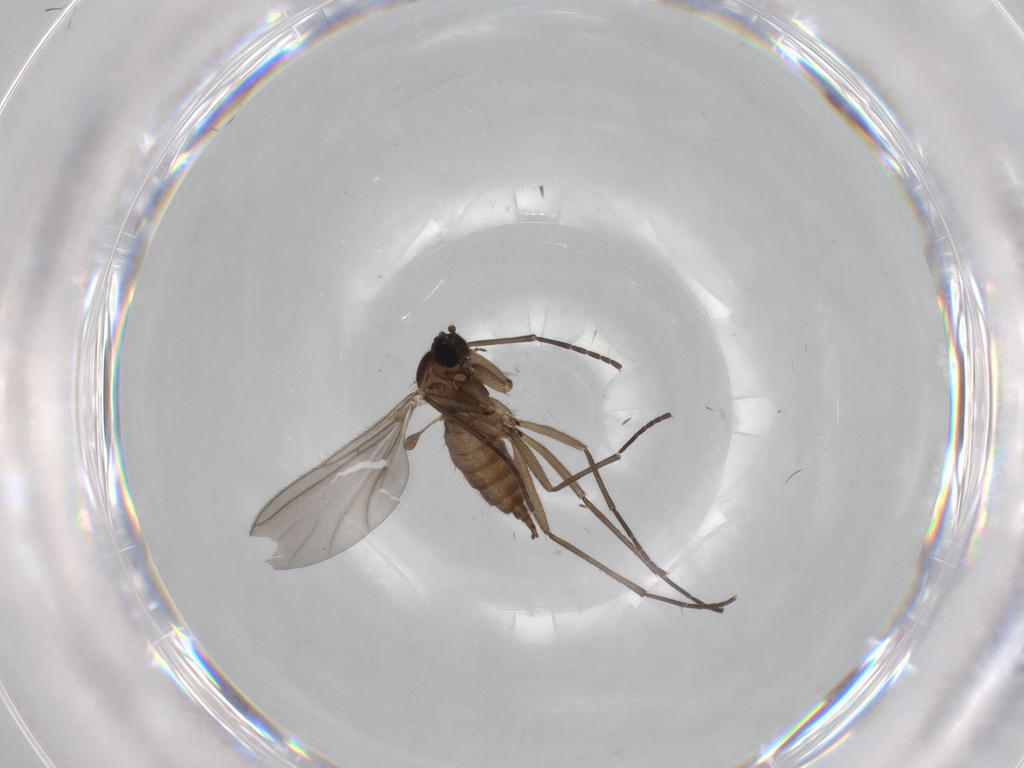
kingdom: Animalia
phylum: Arthropoda
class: Insecta
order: Diptera
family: Sciaridae
